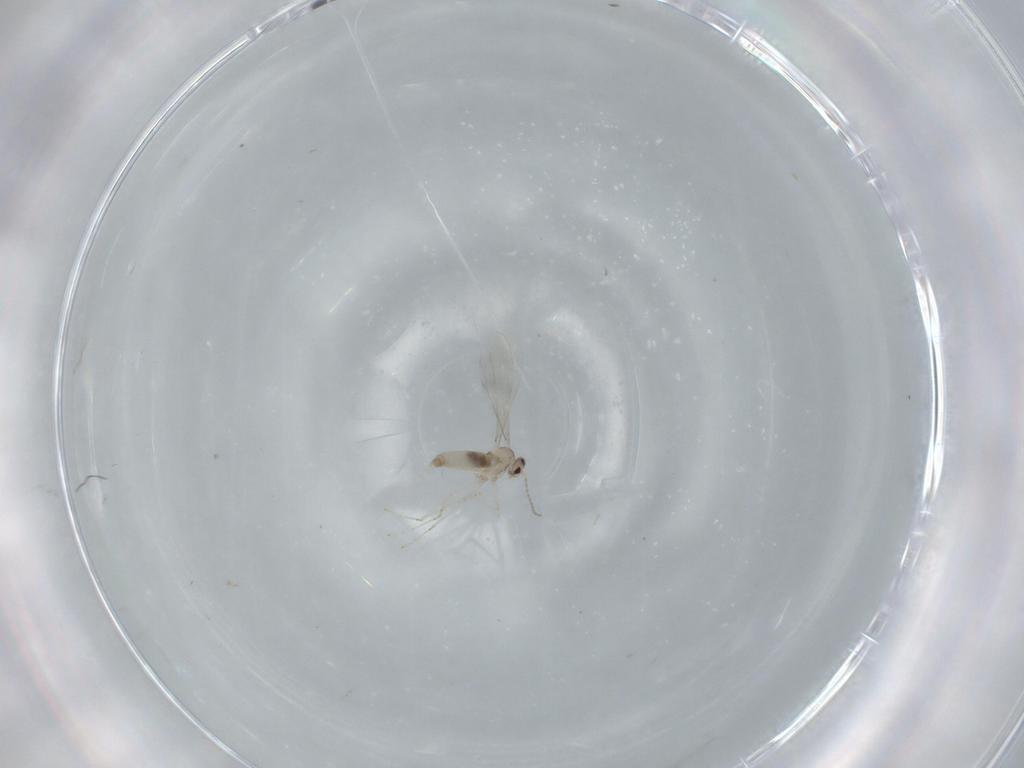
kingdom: Animalia
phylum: Arthropoda
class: Insecta
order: Diptera
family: Cecidomyiidae
